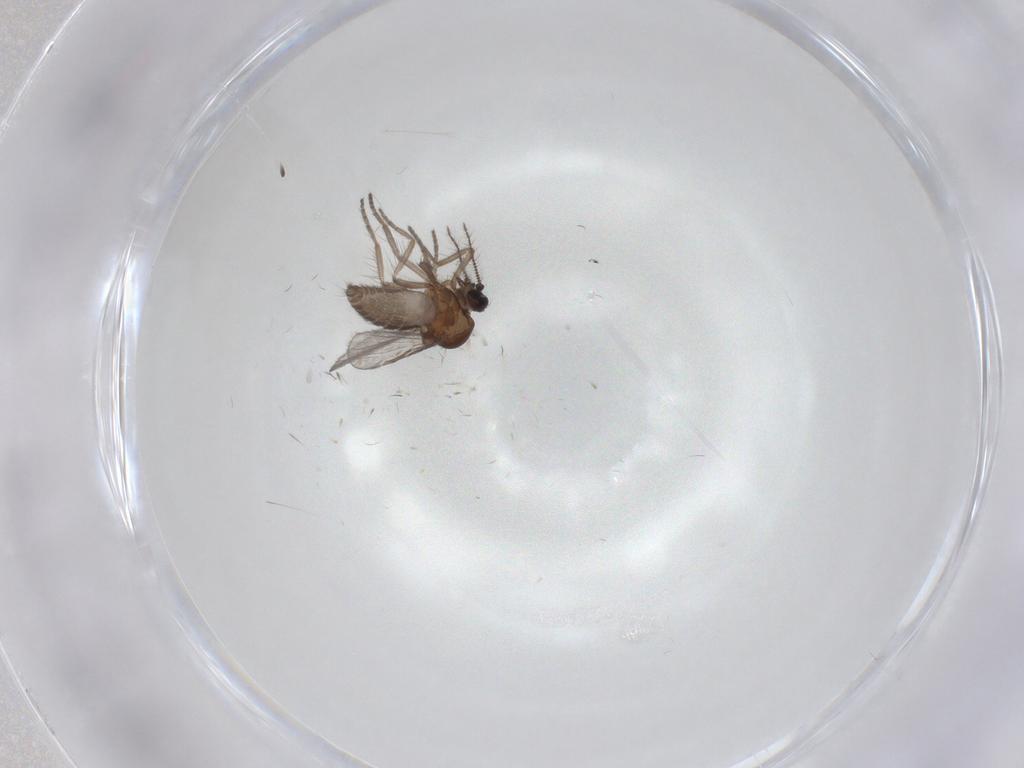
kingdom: Animalia
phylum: Arthropoda
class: Insecta
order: Diptera
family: Psychodidae
